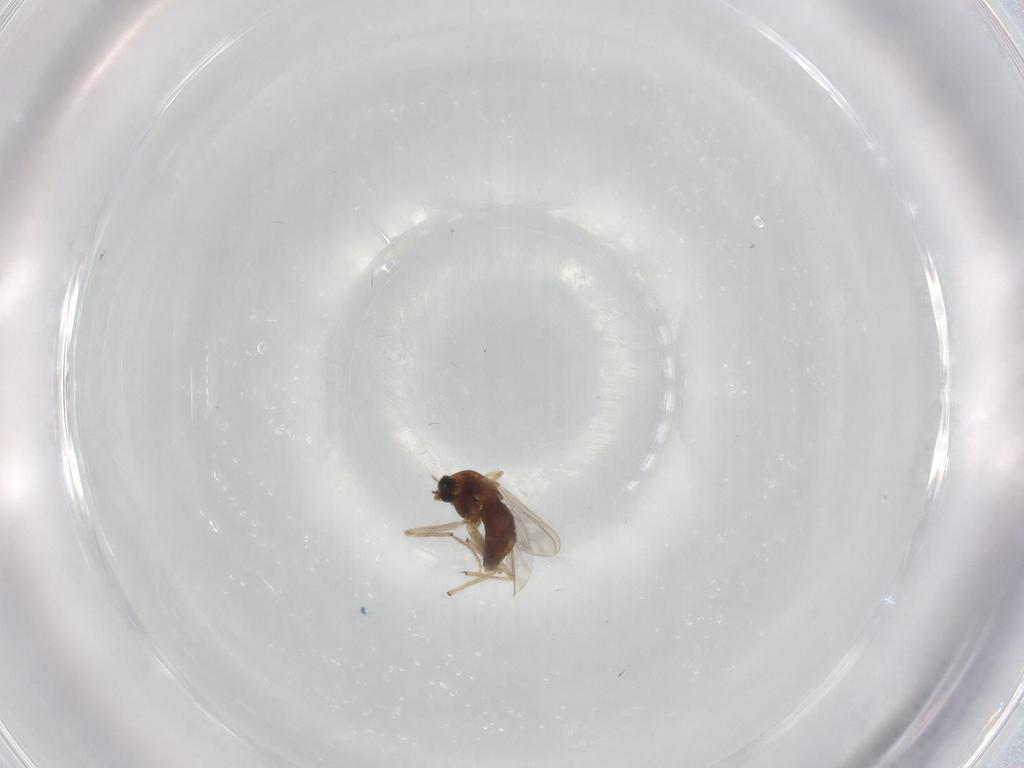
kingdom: Animalia
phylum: Arthropoda
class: Insecta
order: Diptera
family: Chironomidae
